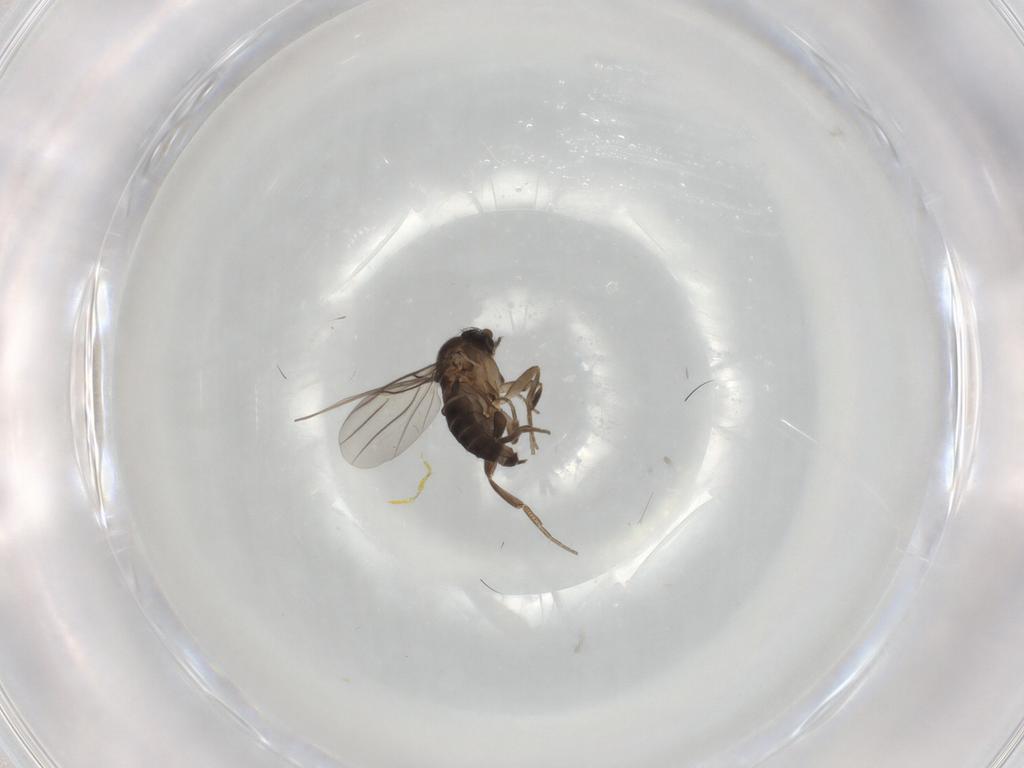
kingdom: Animalia
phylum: Arthropoda
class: Insecta
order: Diptera
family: Phoridae
